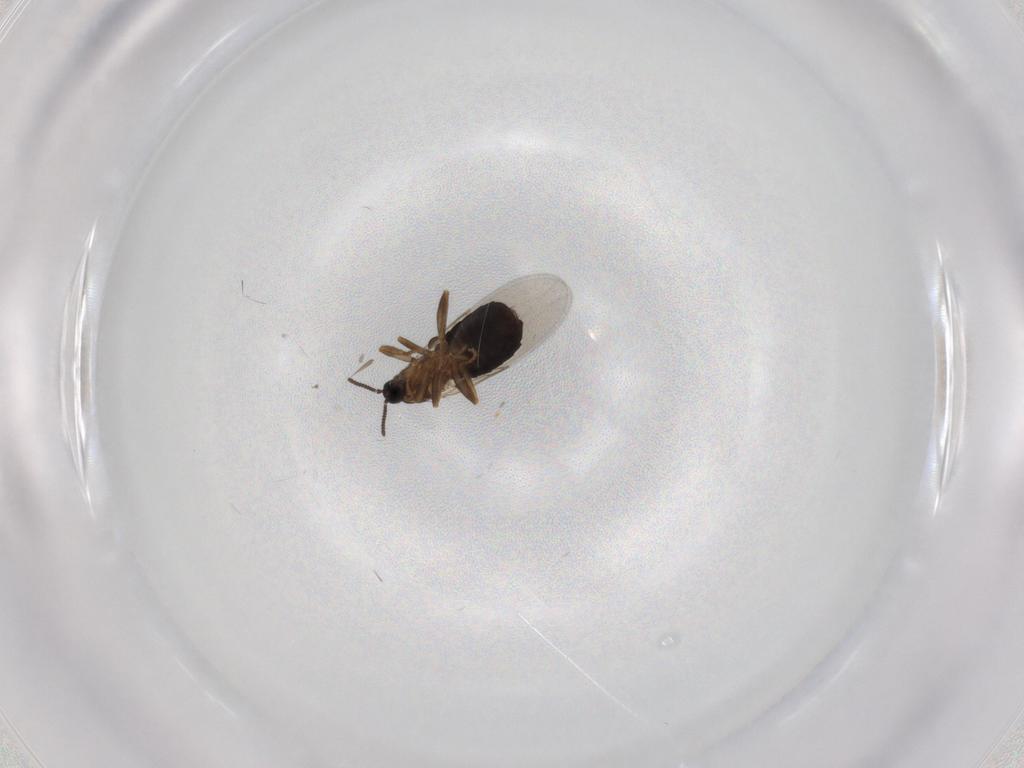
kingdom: Animalia
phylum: Arthropoda
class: Insecta
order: Diptera
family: Scatopsidae
